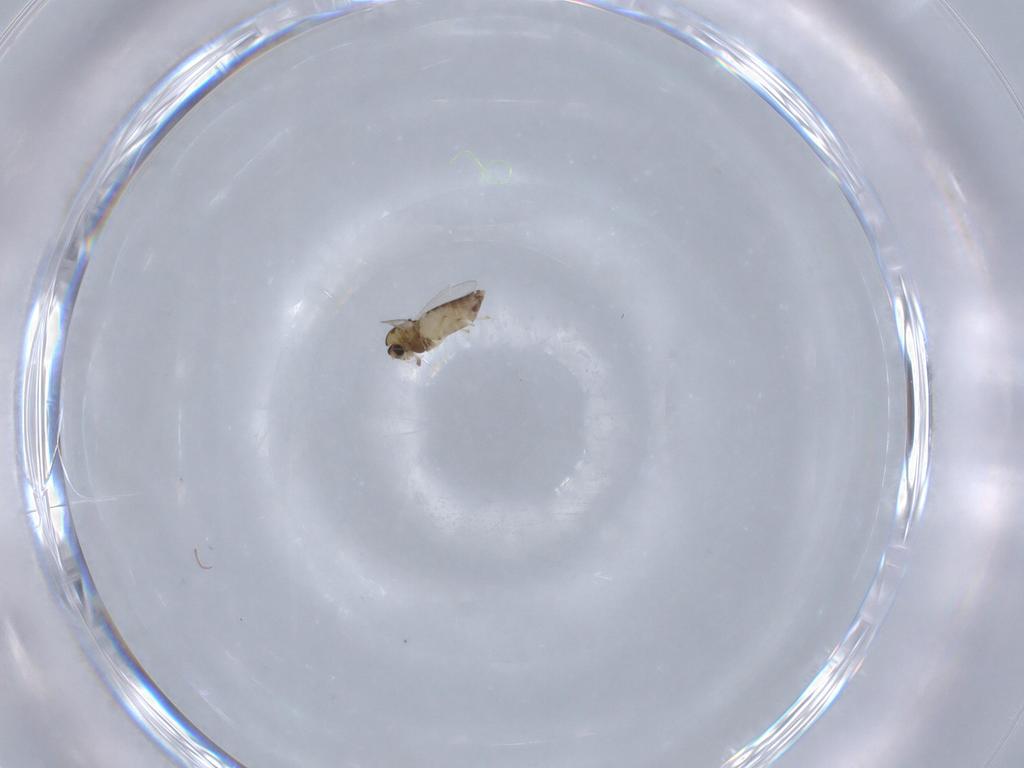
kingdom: Animalia
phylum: Arthropoda
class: Insecta
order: Diptera
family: Chironomidae
